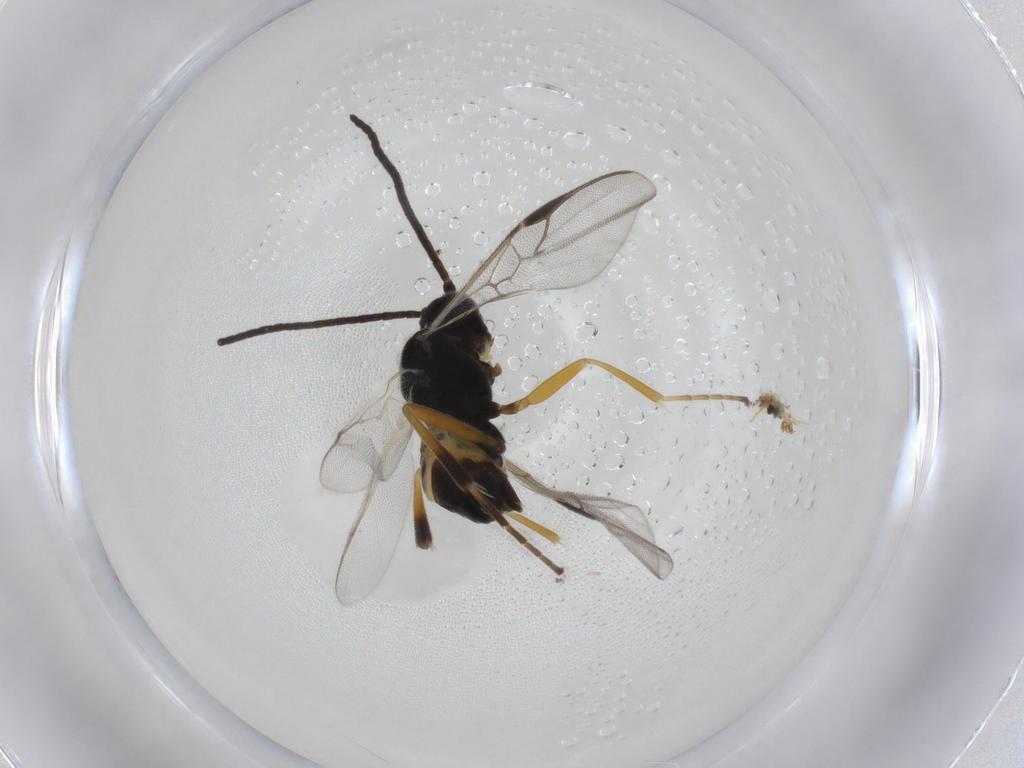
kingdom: Animalia
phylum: Arthropoda
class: Insecta
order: Hymenoptera
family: Braconidae
